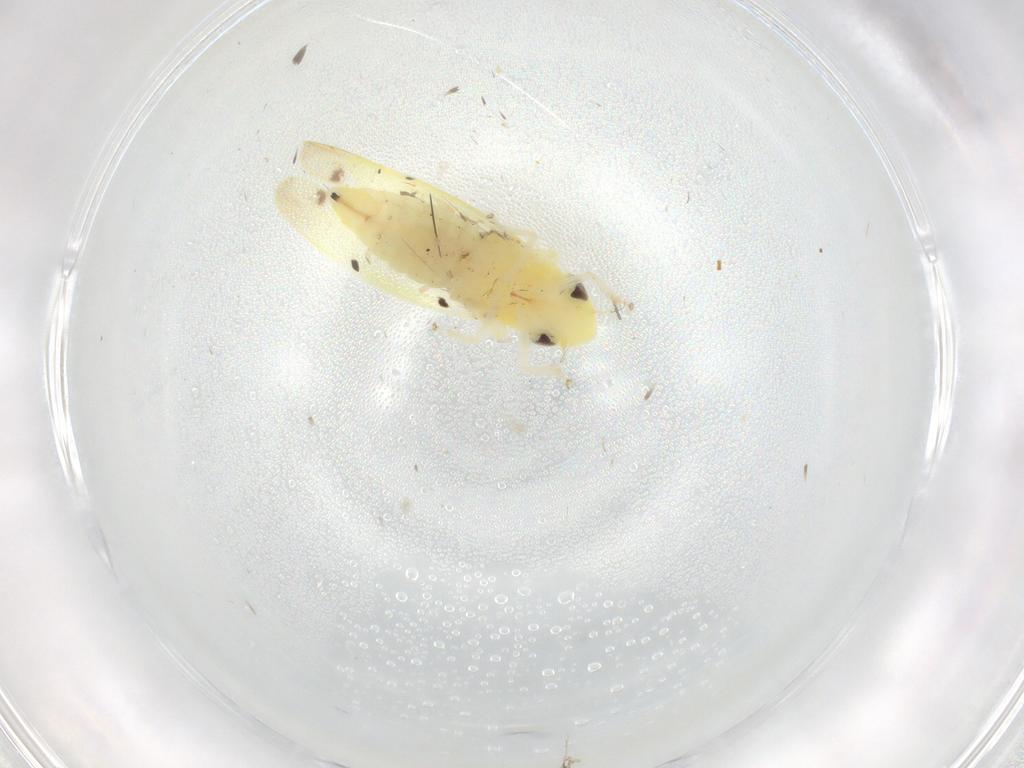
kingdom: Animalia
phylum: Arthropoda
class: Insecta
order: Hemiptera
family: Cicadellidae
